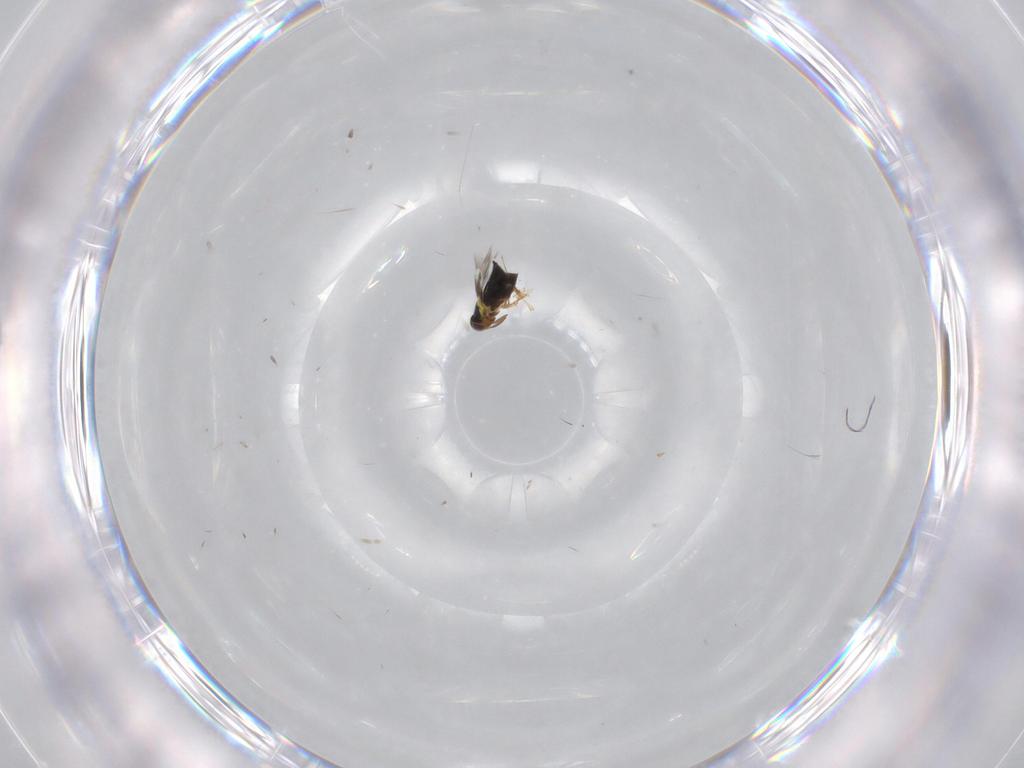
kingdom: Animalia
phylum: Arthropoda
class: Insecta
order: Hymenoptera
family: Signiphoridae
